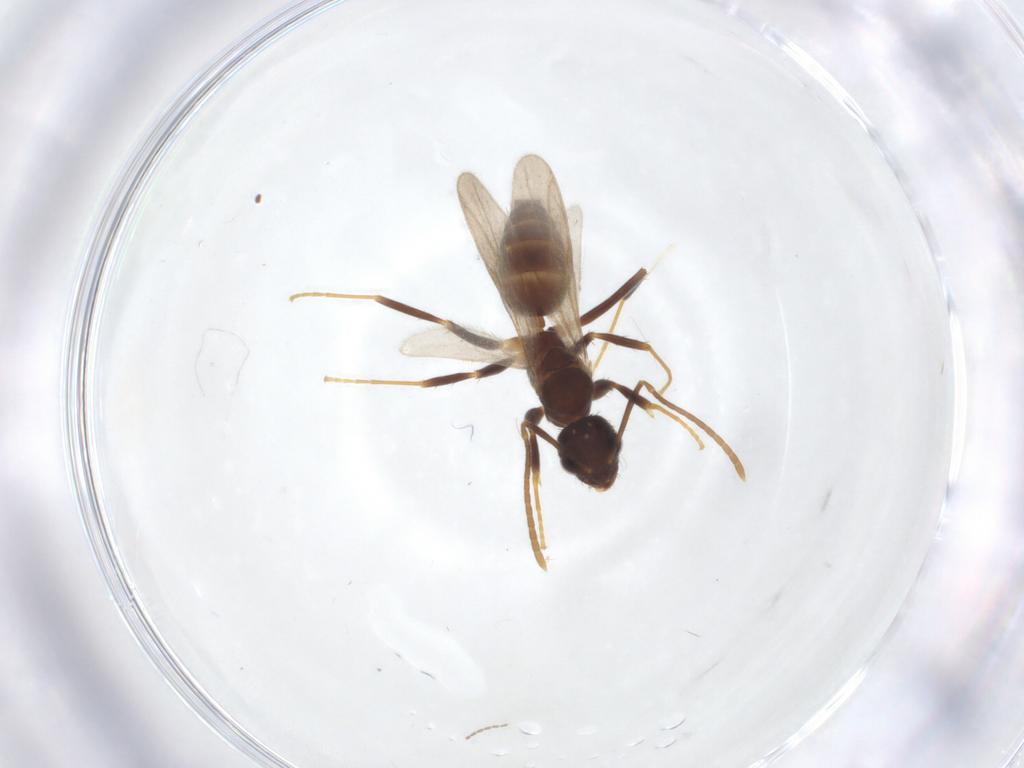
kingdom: Animalia
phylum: Arthropoda
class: Insecta
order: Hymenoptera
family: Formicidae
